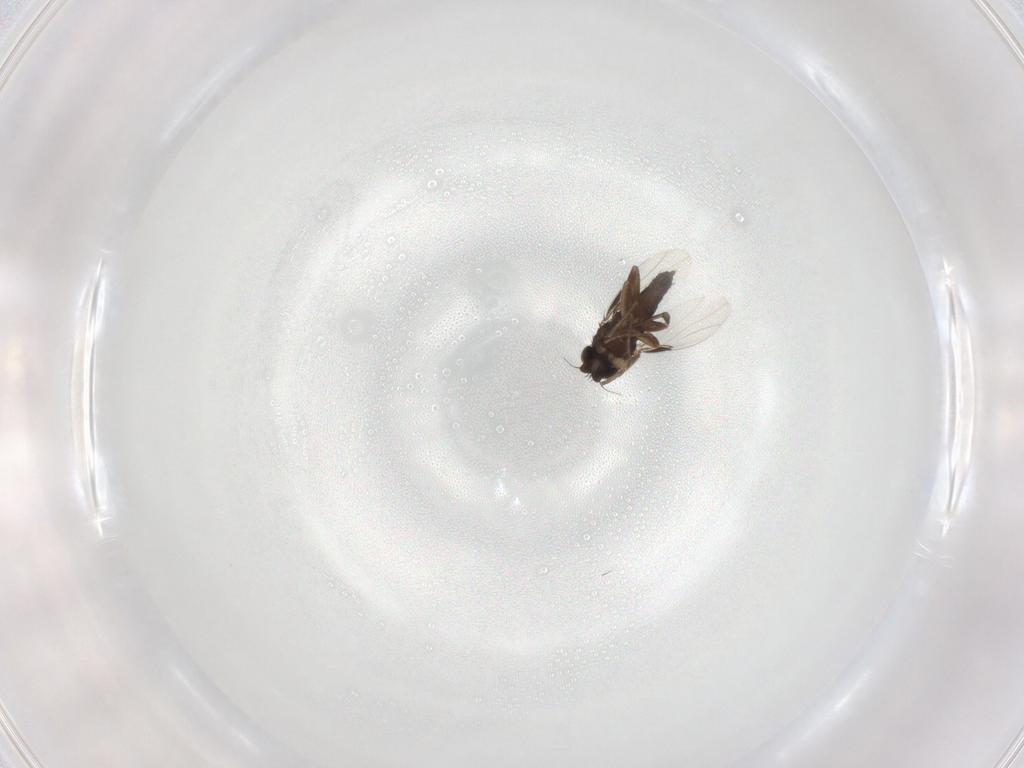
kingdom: Animalia
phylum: Arthropoda
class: Insecta
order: Diptera
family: Phoridae
